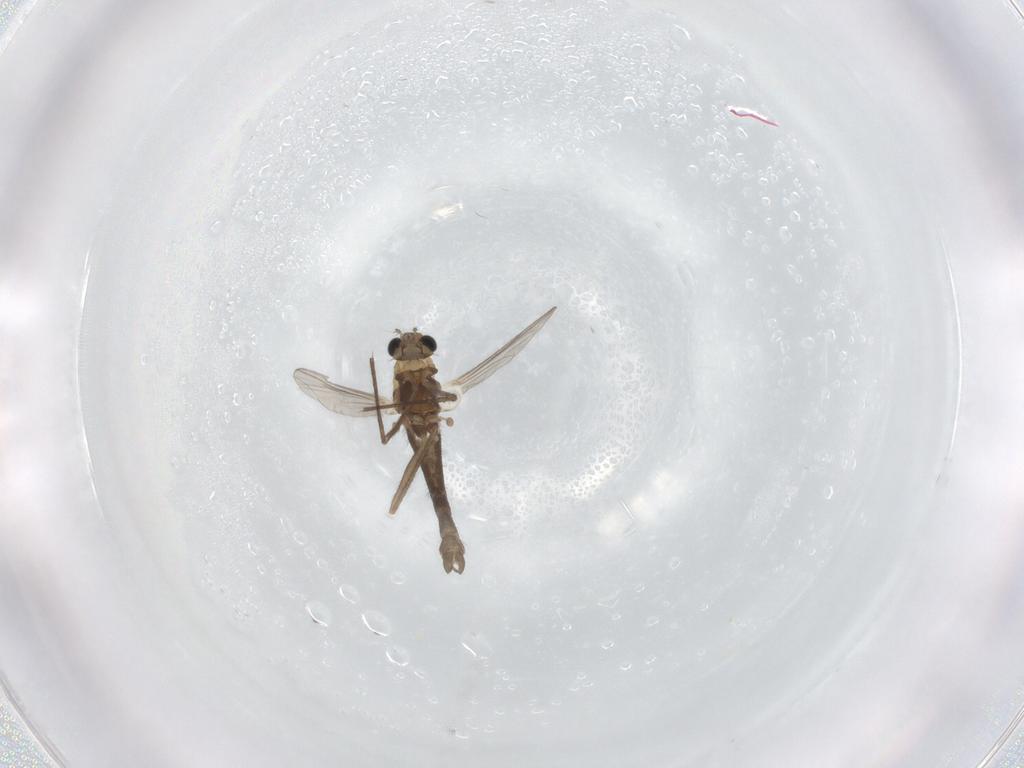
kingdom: Animalia
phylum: Arthropoda
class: Insecta
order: Diptera
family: Chironomidae
